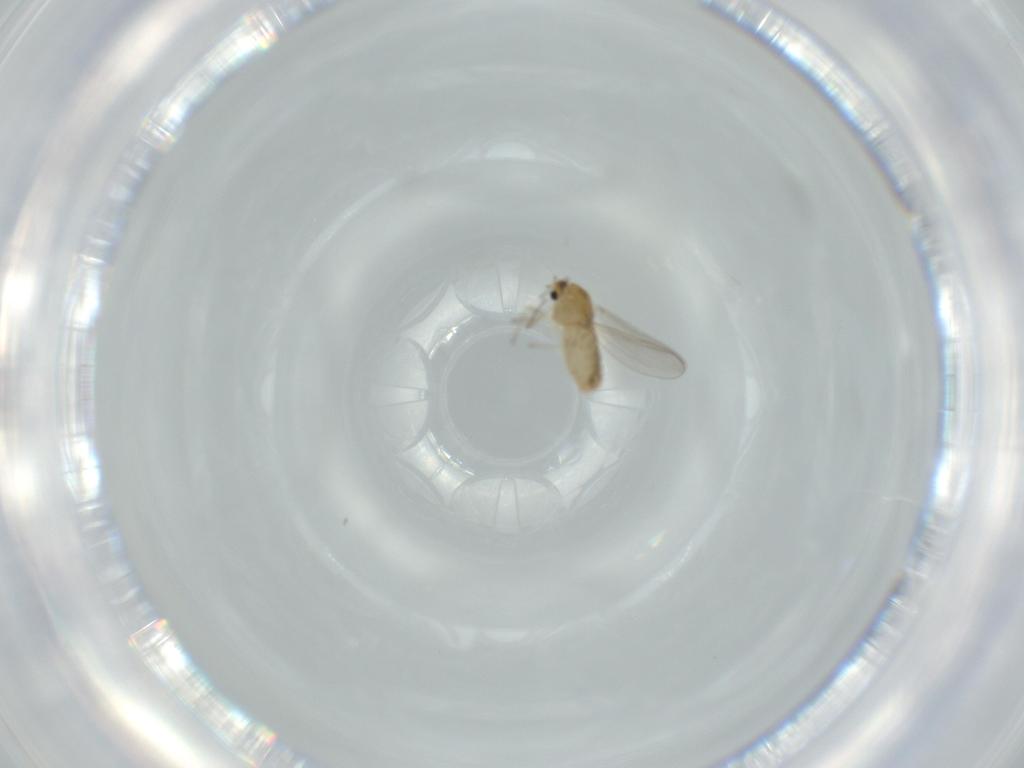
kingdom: Animalia
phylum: Arthropoda
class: Insecta
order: Diptera
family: Chironomidae
